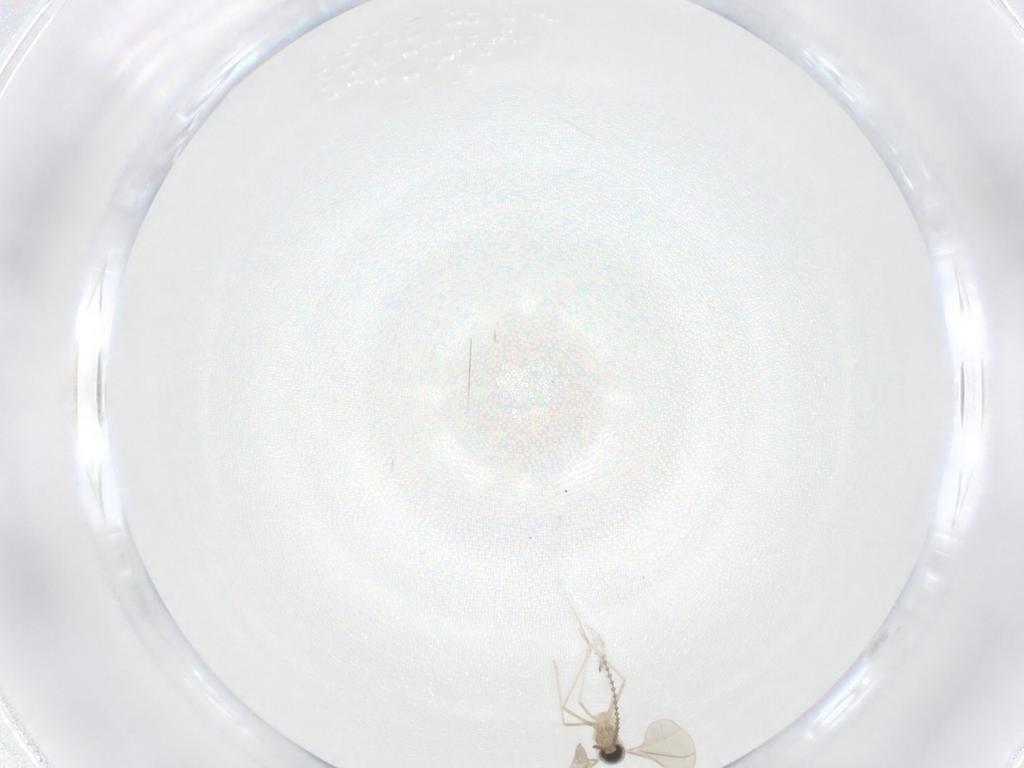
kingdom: Animalia
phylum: Arthropoda
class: Insecta
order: Diptera
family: Cecidomyiidae
